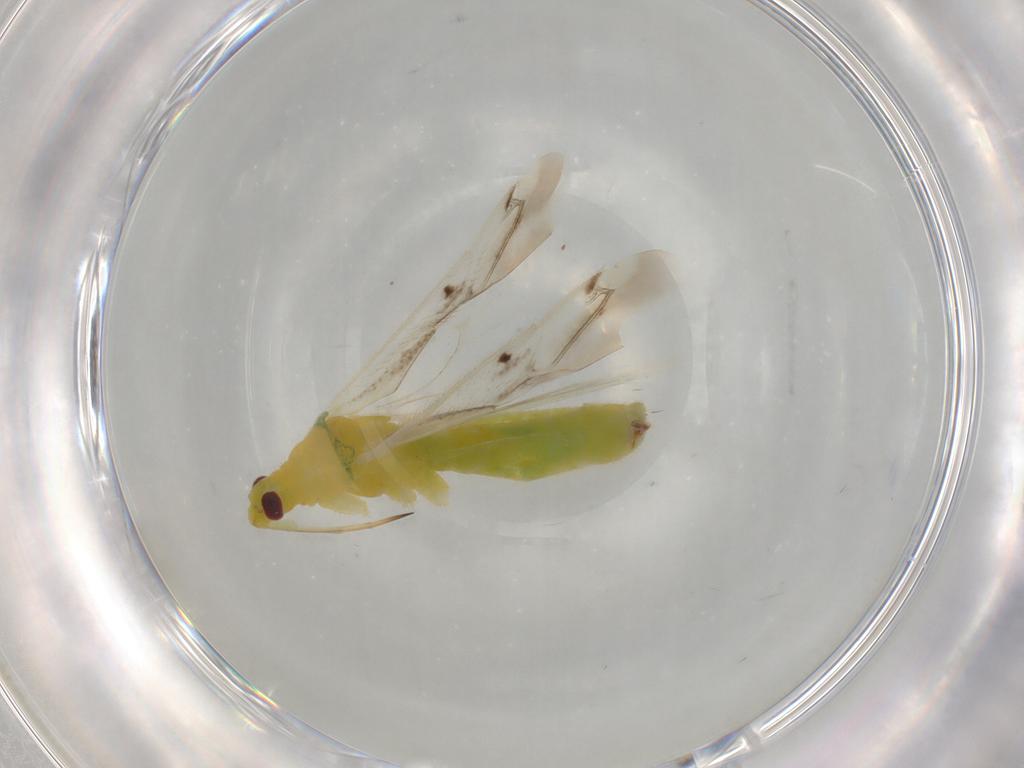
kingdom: Animalia
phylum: Arthropoda
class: Insecta
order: Hemiptera
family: Miridae
